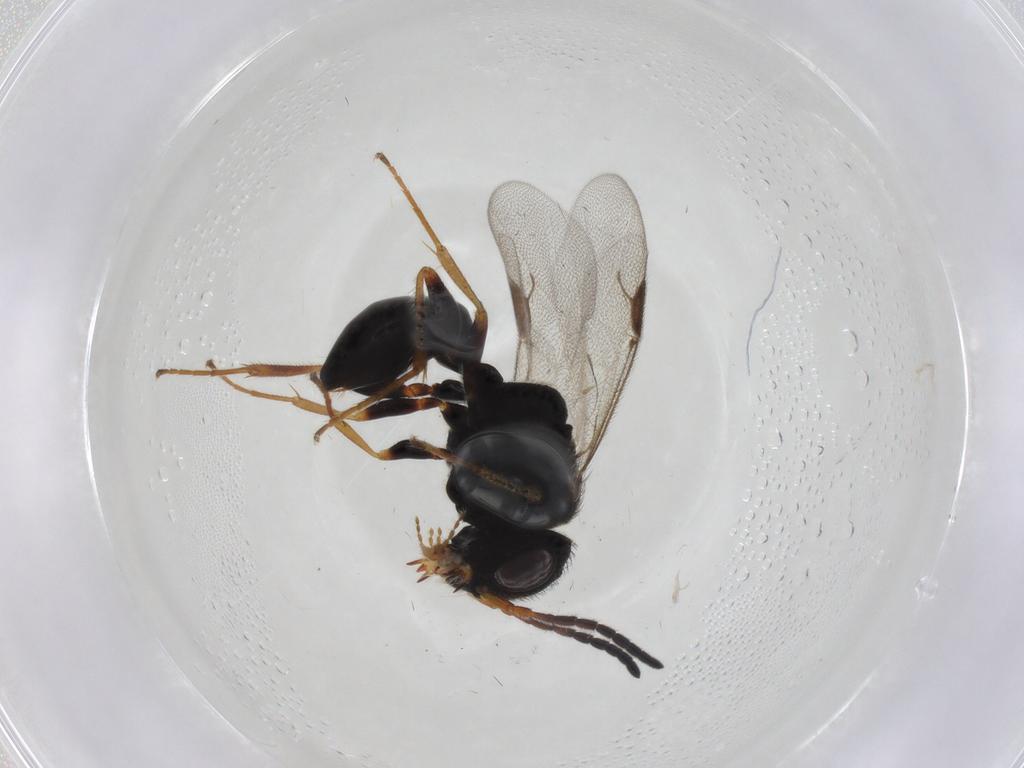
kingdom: Animalia
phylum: Arthropoda
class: Insecta
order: Hymenoptera
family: Dryinidae
